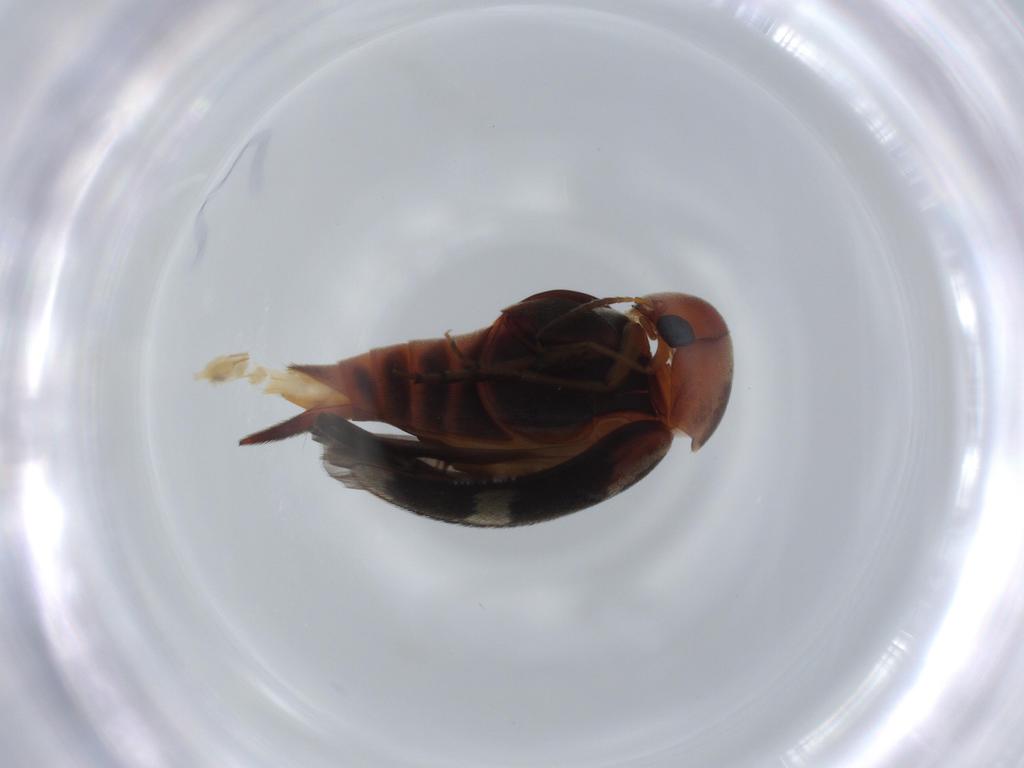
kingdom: Animalia
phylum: Arthropoda
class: Insecta
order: Coleoptera
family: Mordellidae
